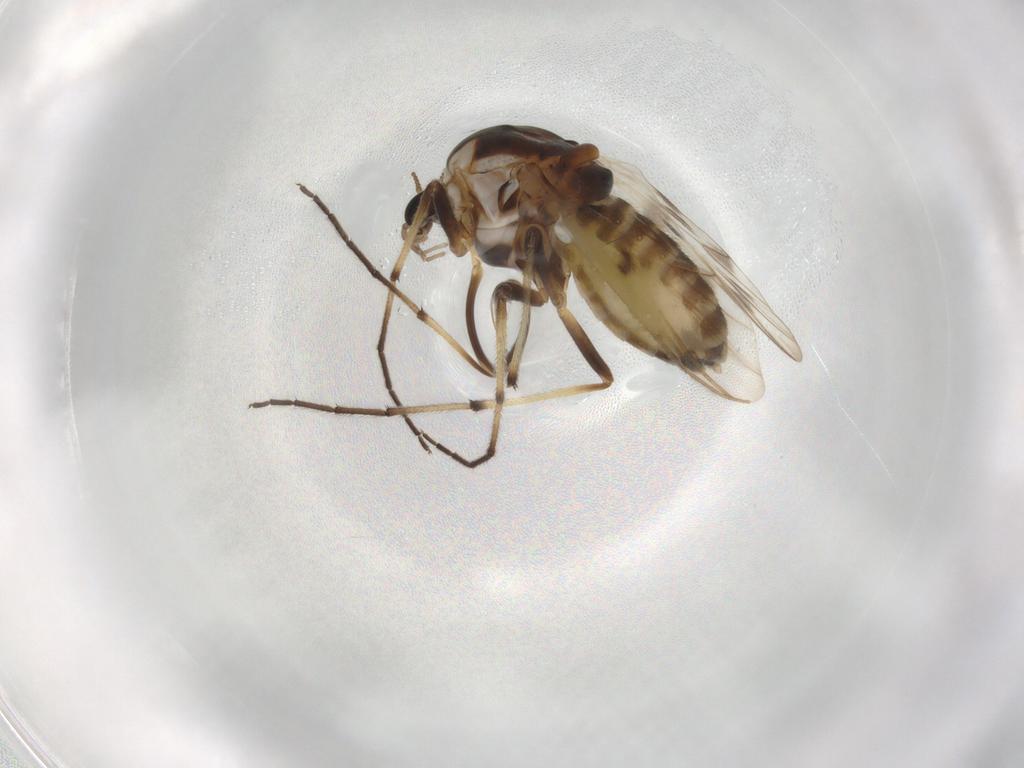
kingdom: Animalia
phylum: Arthropoda
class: Insecta
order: Diptera
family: Chironomidae
